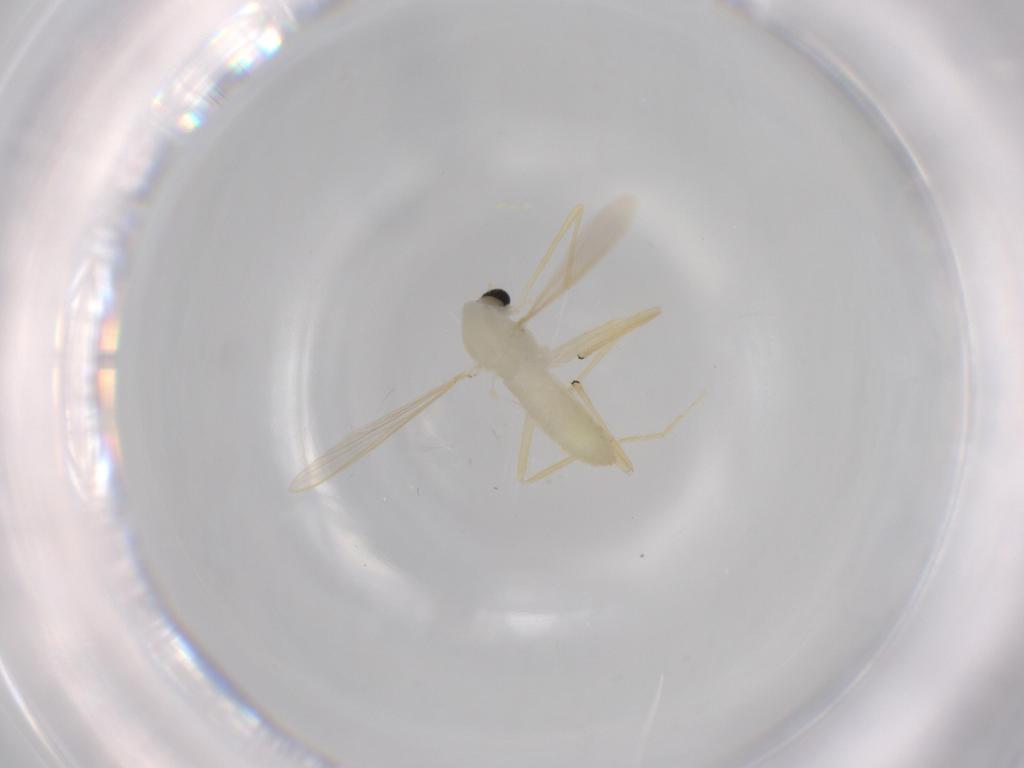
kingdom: Animalia
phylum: Arthropoda
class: Insecta
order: Diptera
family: Chironomidae
